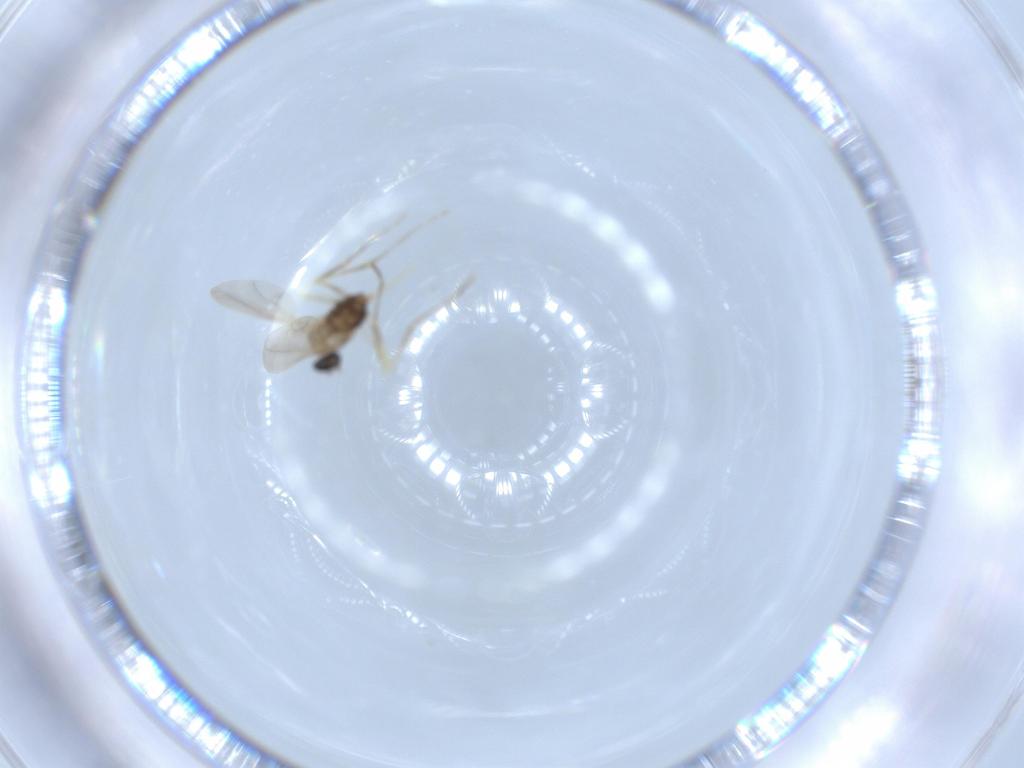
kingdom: Animalia
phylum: Arthropoda
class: Insecta
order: Diptera
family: Cecidomyiidae
